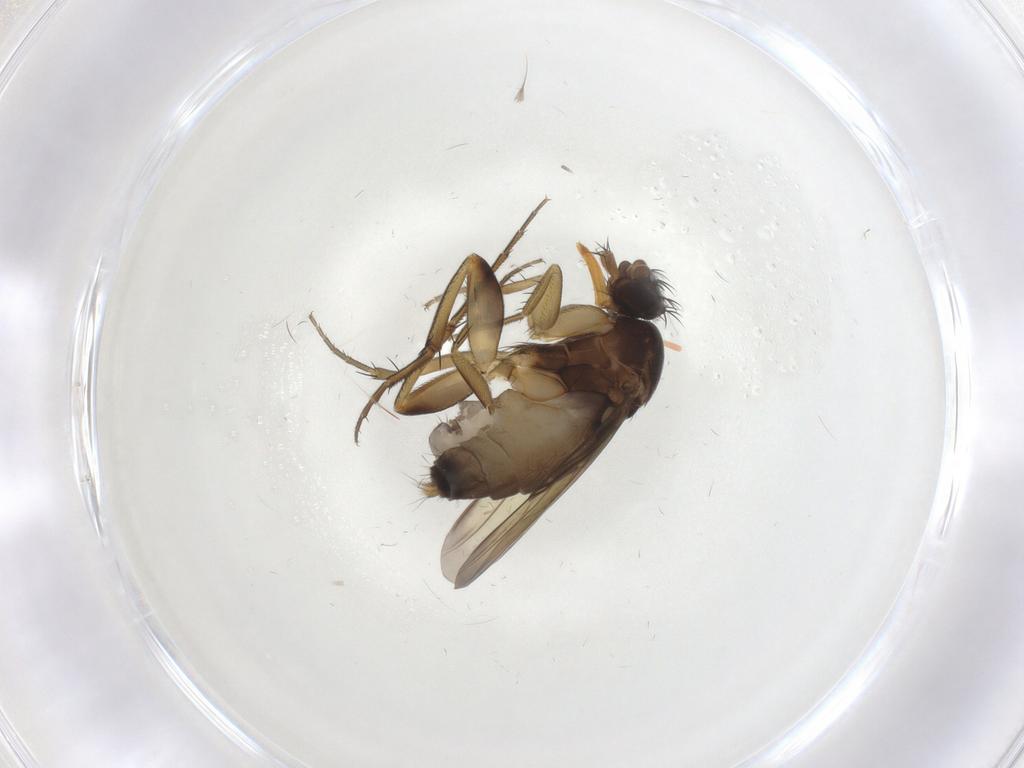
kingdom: Animalia
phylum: Arthropoda
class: Insecta
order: Diptera
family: Phoridae
